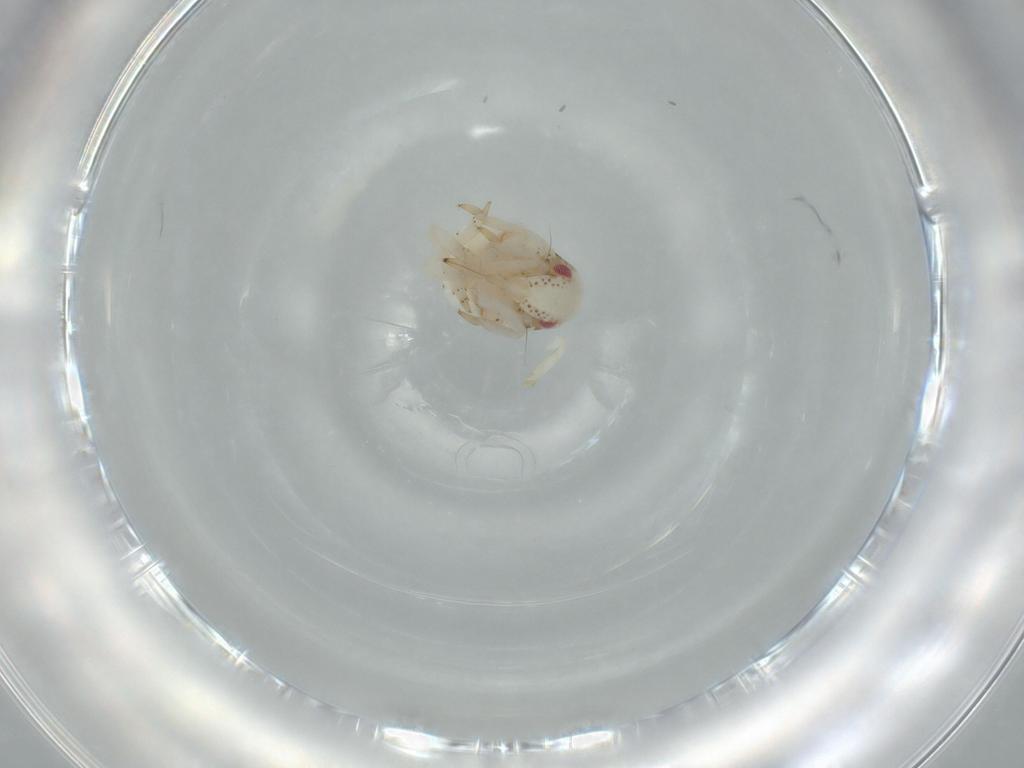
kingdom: Animalia
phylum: Arthropoda
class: Insecta
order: Hemiptera
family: Acanaloniidae
